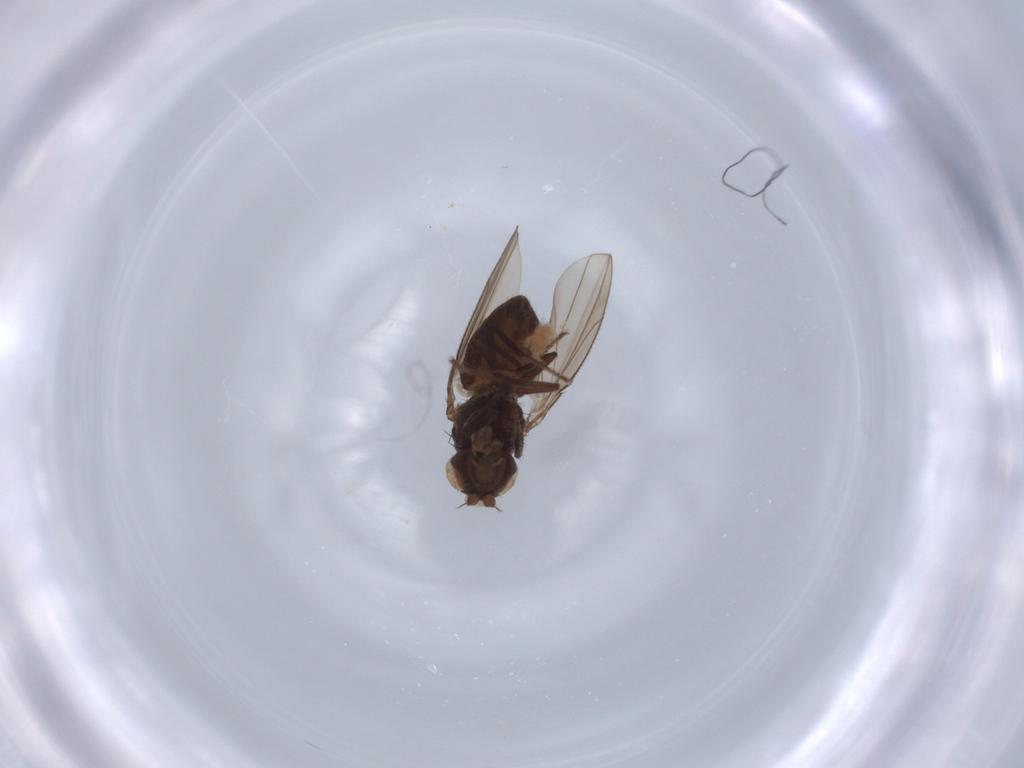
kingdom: Animalia
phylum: Arthropoda
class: Insecta
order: Diptera
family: Ephydridae
